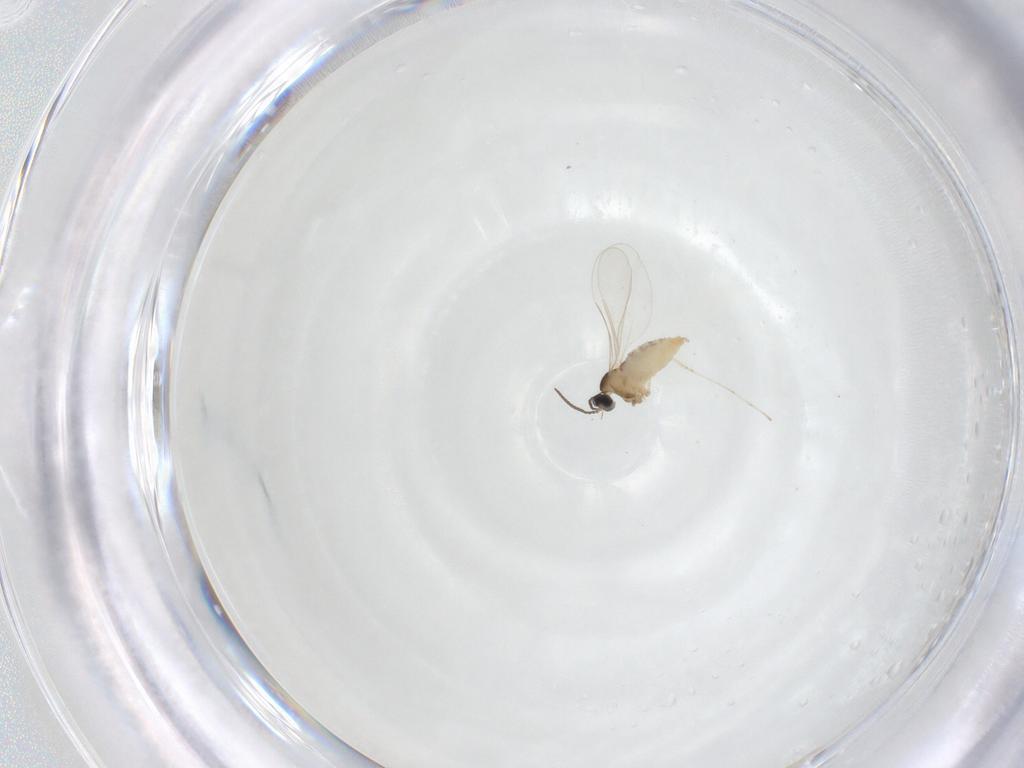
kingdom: Animalia
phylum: Arthropoda
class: Insecta
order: Diptera
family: Cecidomyiidae
